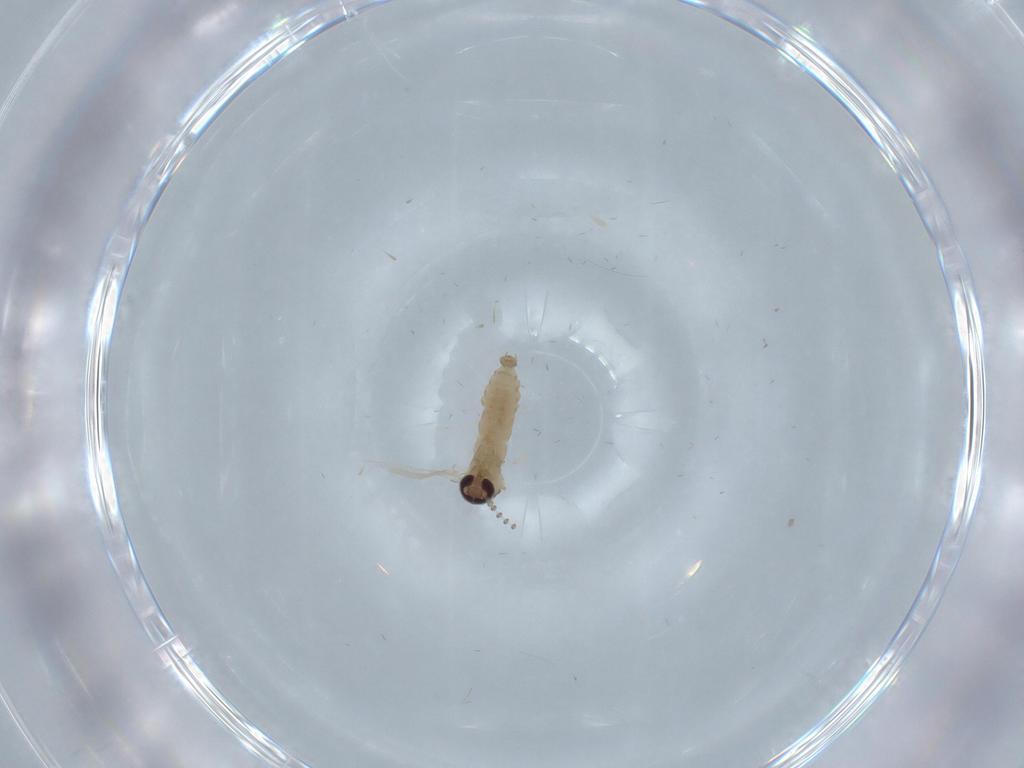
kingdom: Animalia
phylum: Arthropoda
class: Insecta
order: Diptera
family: Psychodidae
